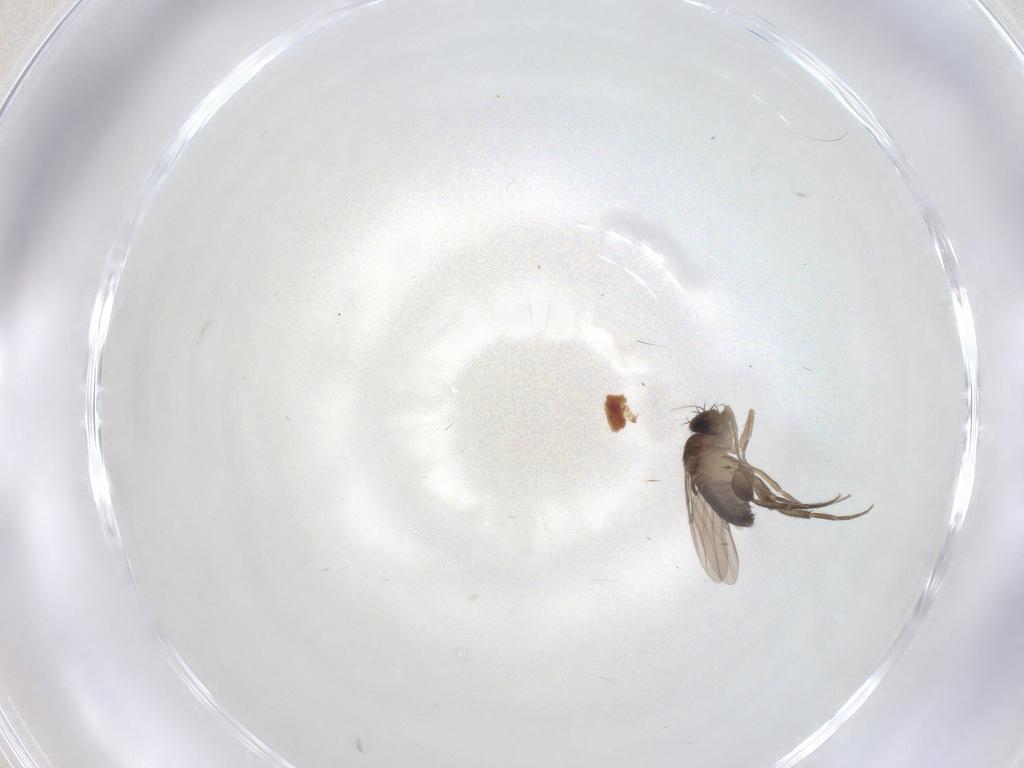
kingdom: Animalia
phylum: Arthropoda
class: Insecta
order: Diptera
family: Phoridae
